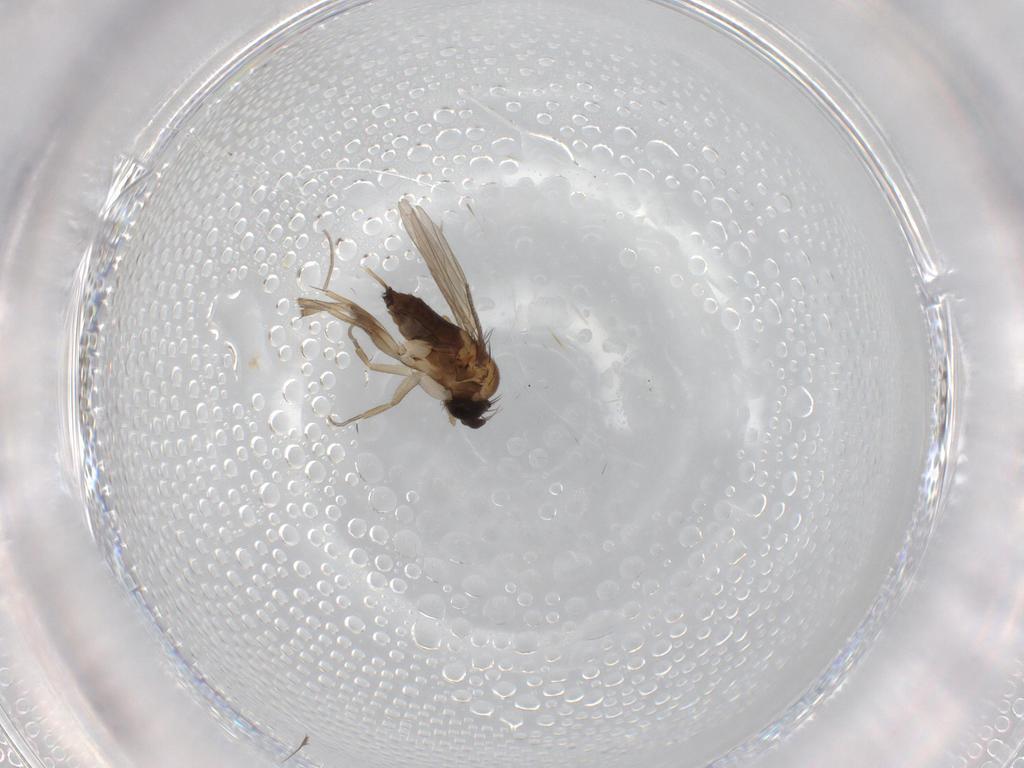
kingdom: Animalia
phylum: Arthropoda
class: Insecta
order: Diptera
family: Phoridae
